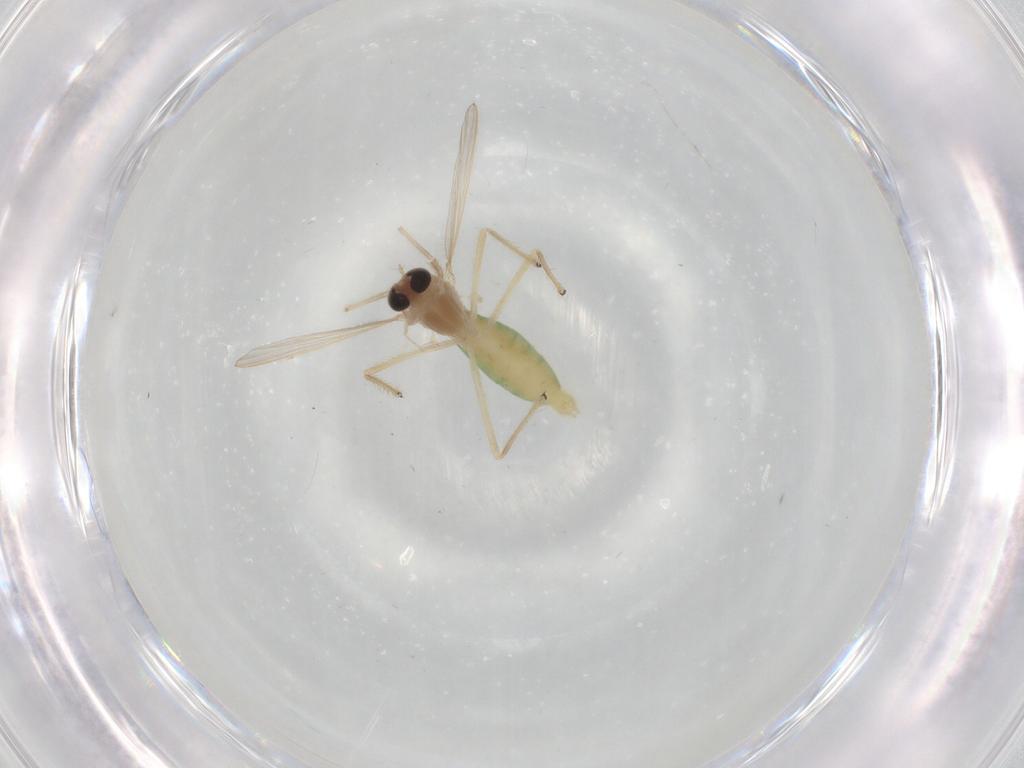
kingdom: Animalia
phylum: Arthropoda
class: Insecta
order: Diptera
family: Chironomidae
